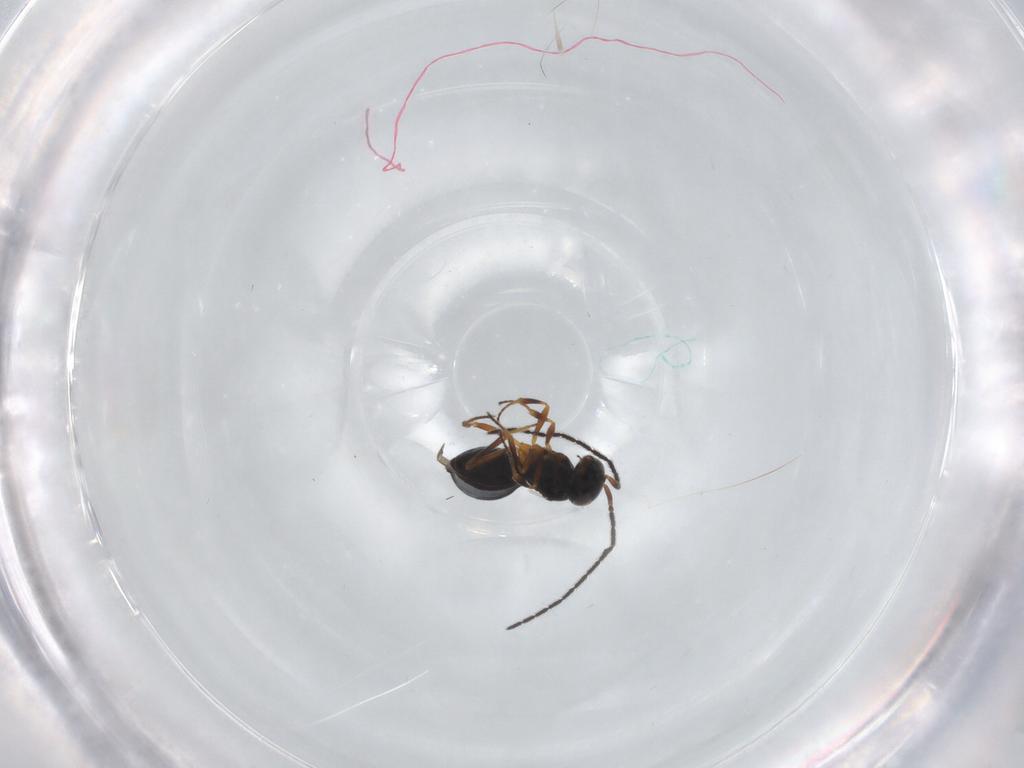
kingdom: Animalia
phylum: Arthropoda
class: Insecta
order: Hymenoptera
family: Scelionidae
